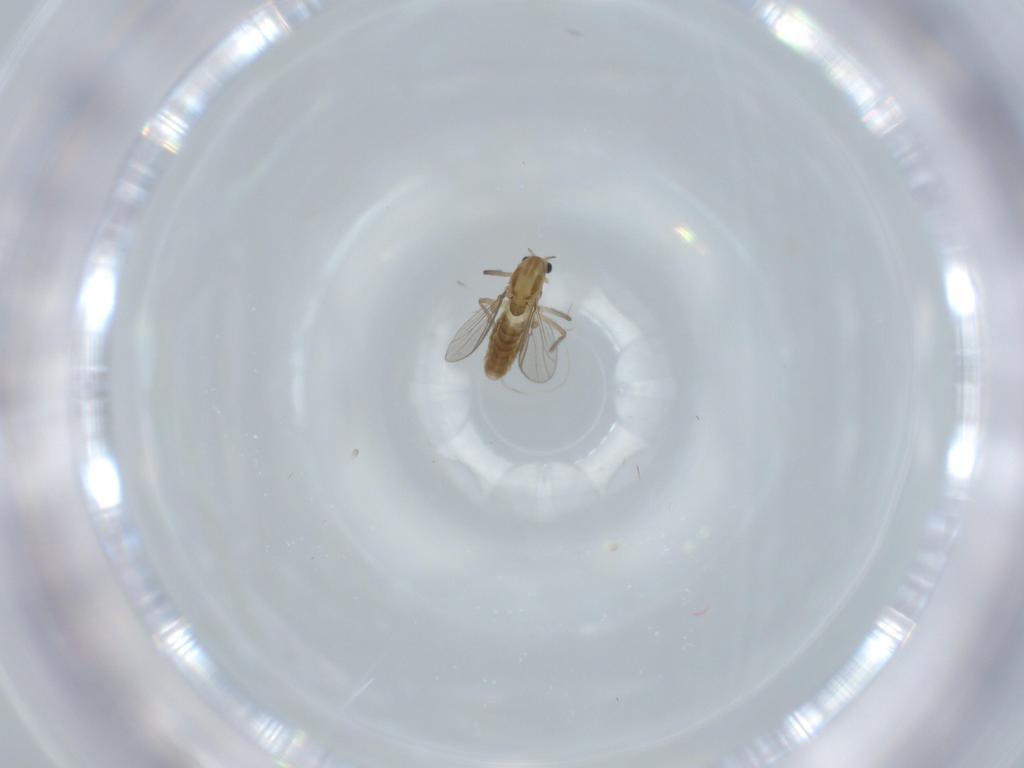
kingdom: Animalia
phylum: Arthropoda
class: Insecta
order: Diptera
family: Chironomidae
